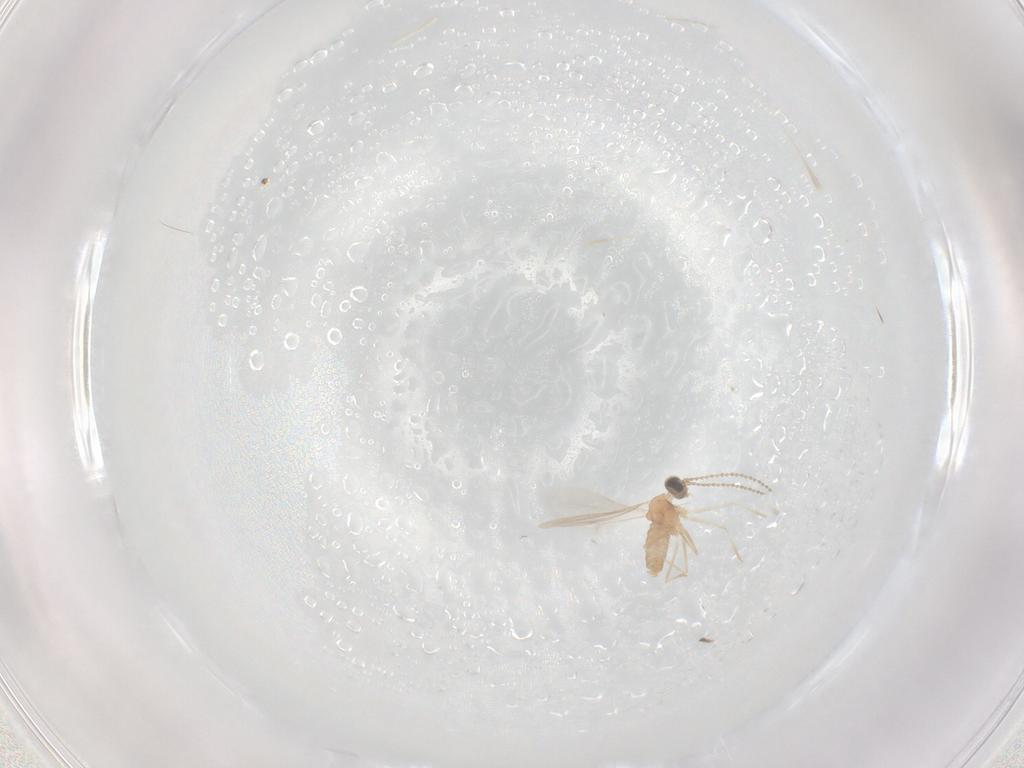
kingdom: Animalia
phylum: Arthropoda
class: Insecta
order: Diptera
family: Cecidomyiidae
